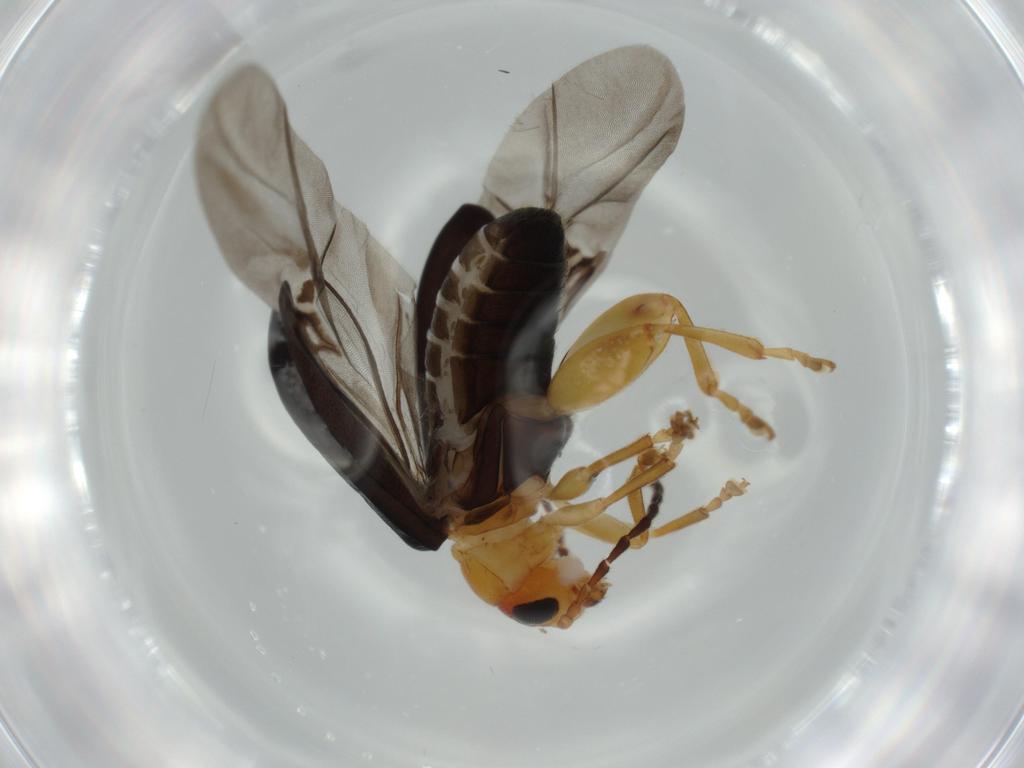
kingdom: Animalia
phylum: Arthropoda
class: Insecta
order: Coleoptera
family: Chrysomelidae
